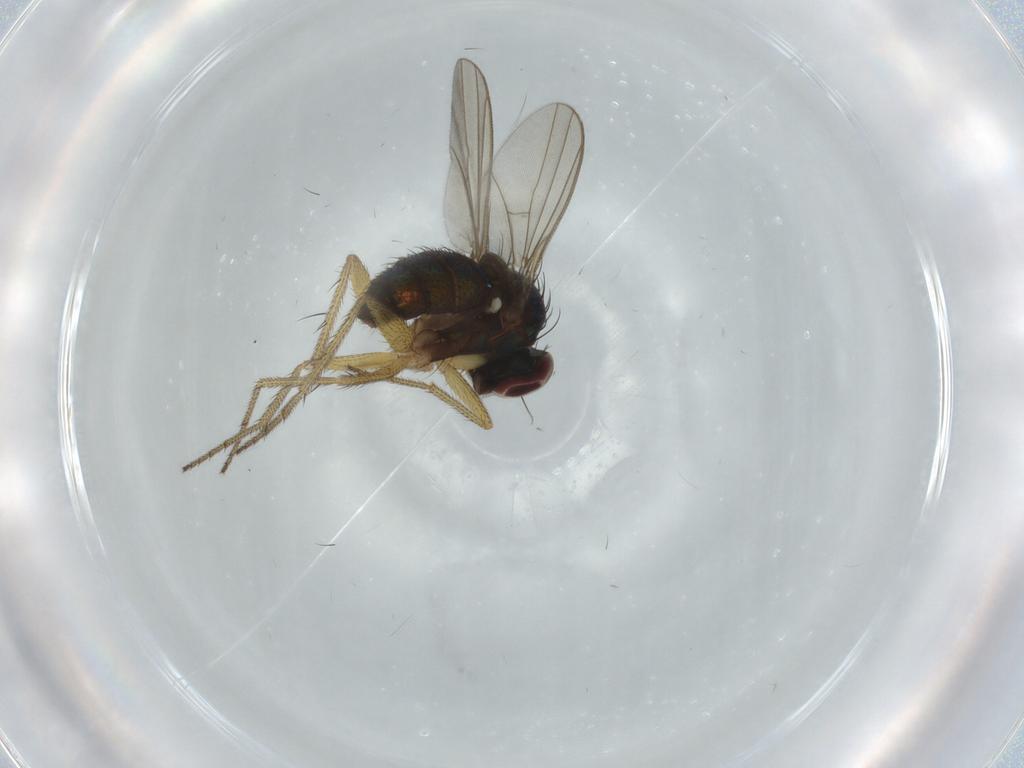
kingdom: Animalia
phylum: Arthropoda
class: Insecta
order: Diptera
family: Dolichopodidae
